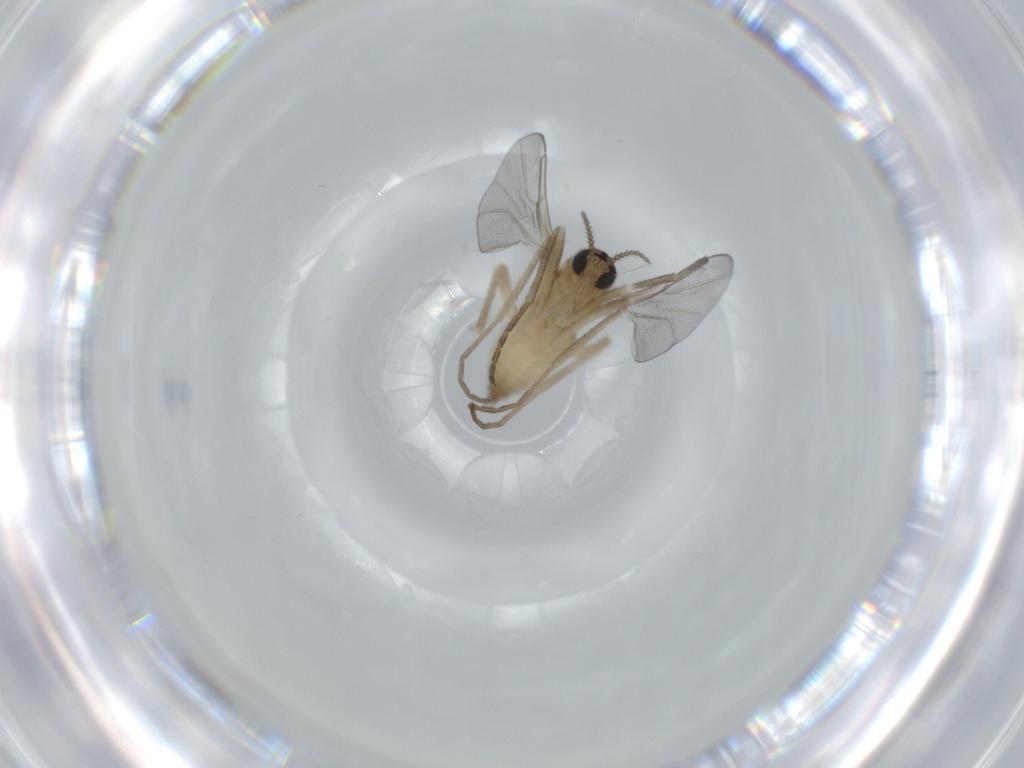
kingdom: Animalia
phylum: Arthropoda
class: Insecta
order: Diptera
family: Cecidomyiidae
